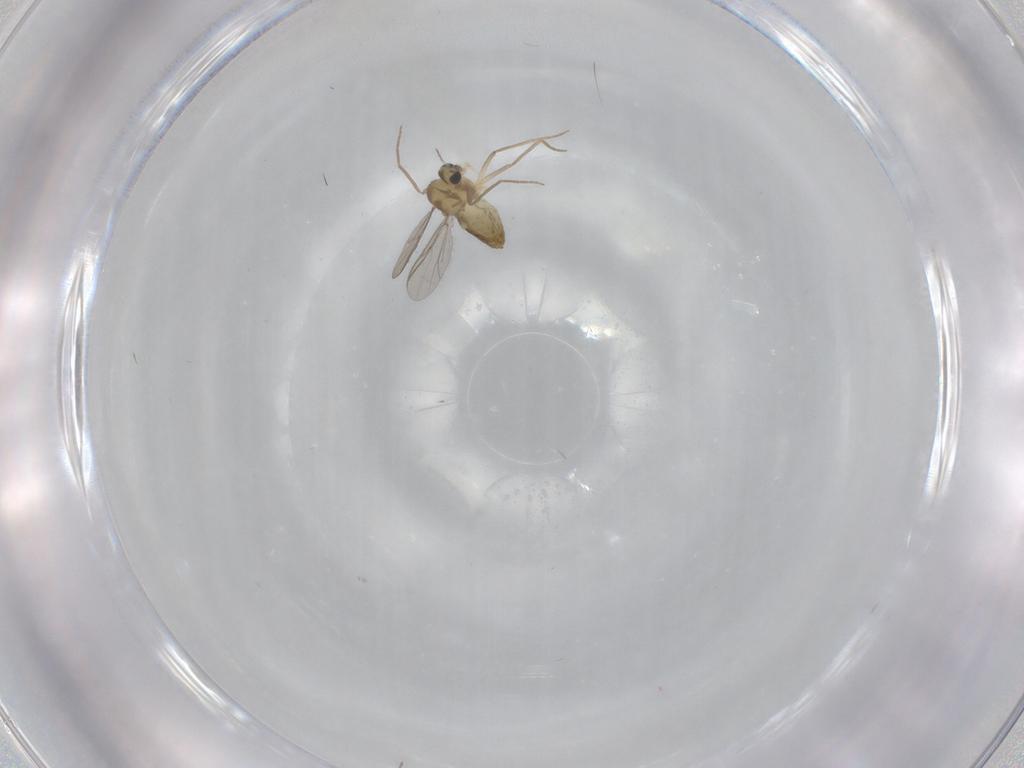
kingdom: Animalia
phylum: Arthropoda
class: Insecta
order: Diptera
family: Chironomidae
